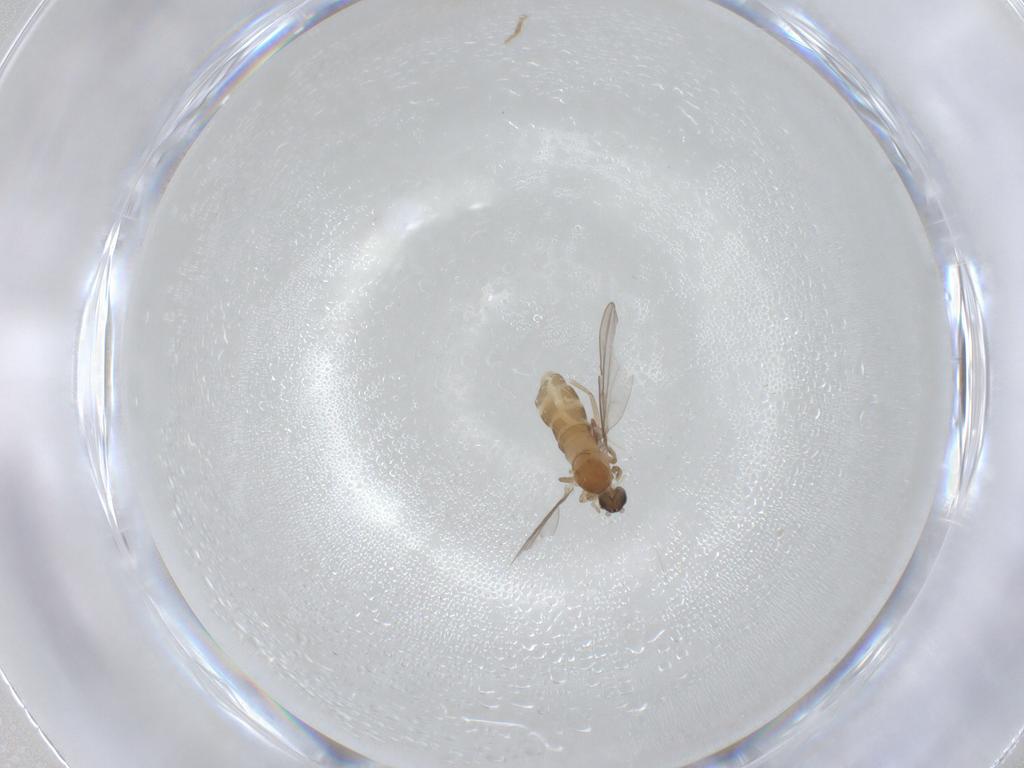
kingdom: Animalia
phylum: Arthropoda
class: Insecta
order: Diptera
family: Cecidomyiidae
